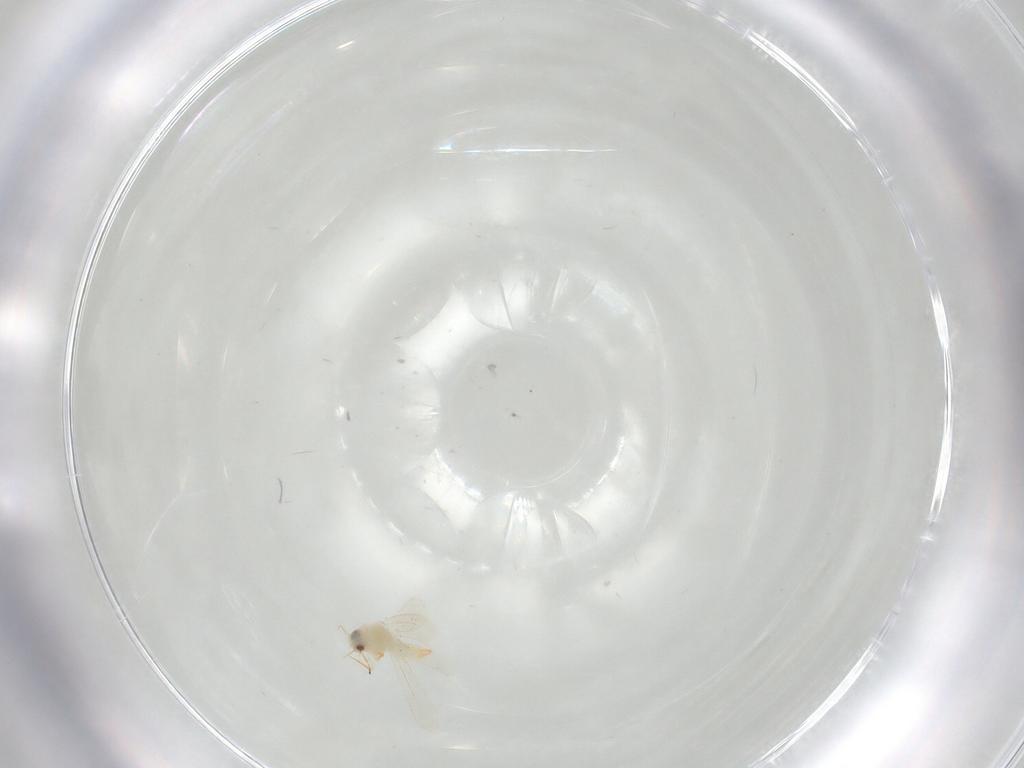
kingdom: Animalia
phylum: Arthropoda
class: Insecta
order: Hemiptera
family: Aleyrodidae
